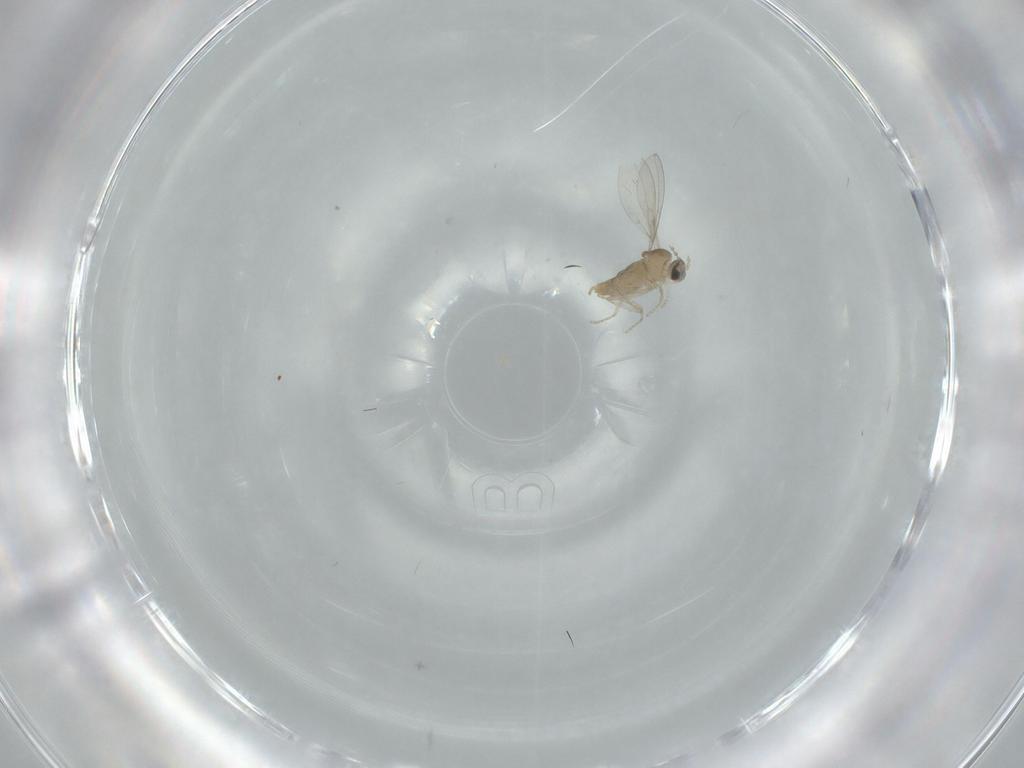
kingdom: Animalia
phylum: Arthropoda
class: Insecta
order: Diptera
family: Cecidomyiidae
